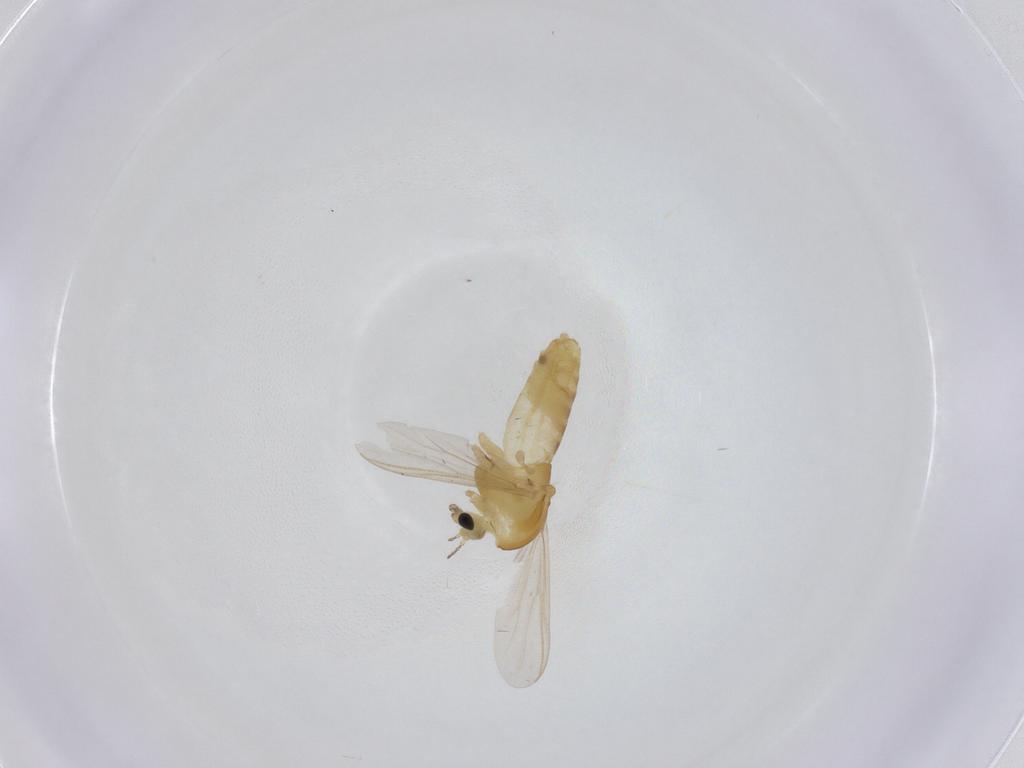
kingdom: Animalia
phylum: Arthropoda
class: Insecta
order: Diptera
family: Chironomidae
